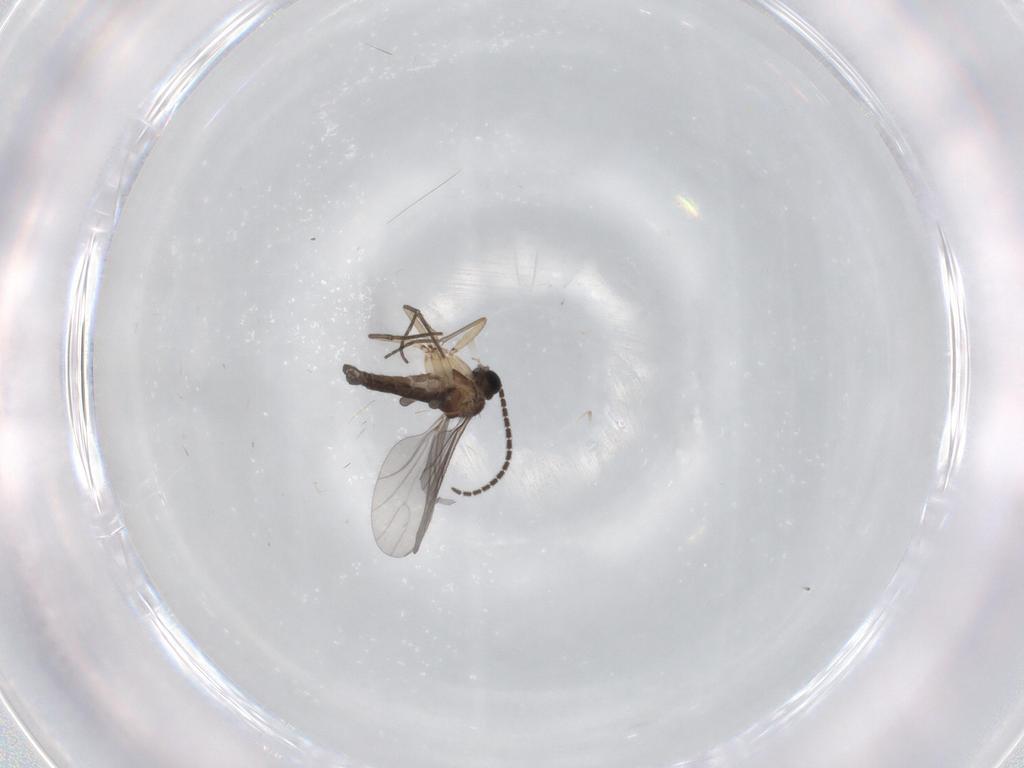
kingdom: Animalia
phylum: Arthropoda
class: Insecta
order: Diptera
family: Sciaridae
